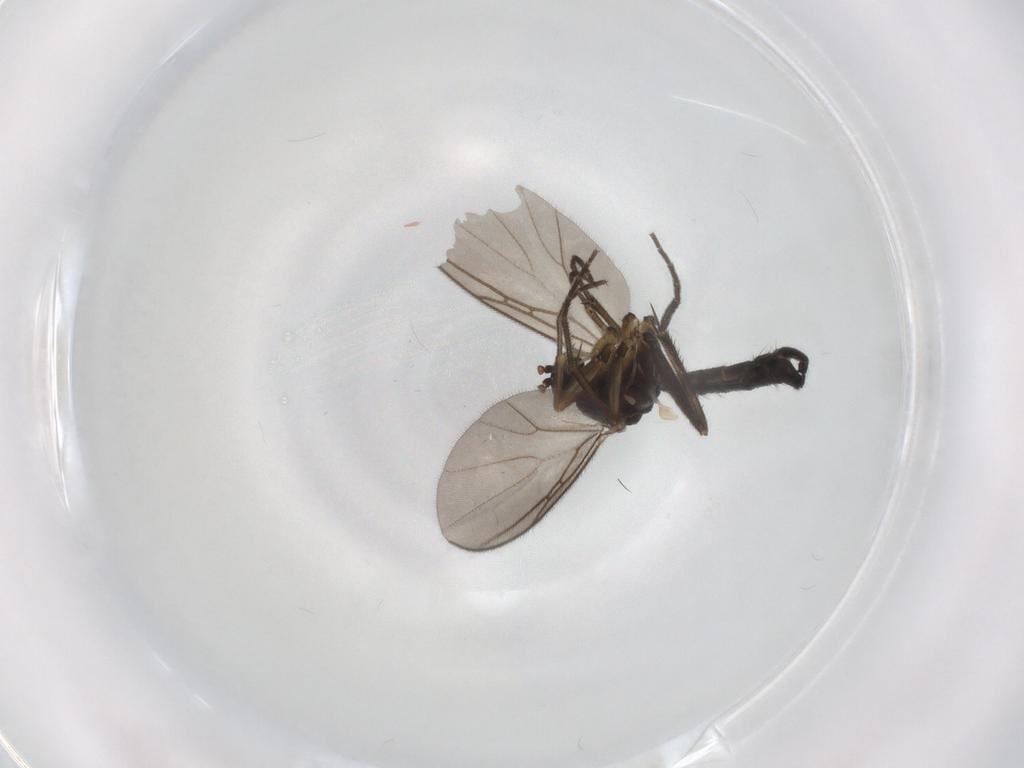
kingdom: Animalia
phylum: Arthropoda
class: Insecta
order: Diptera
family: Mycetophilidae
